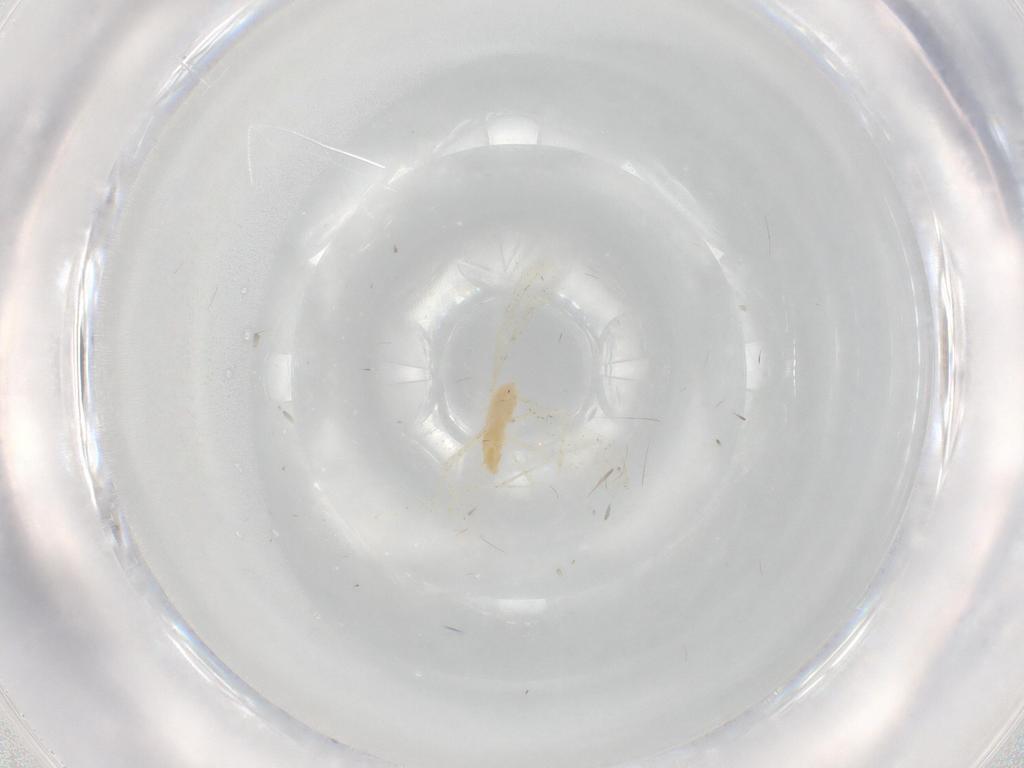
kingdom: Animalia
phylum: Arthropoda
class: Insecta
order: Diptera
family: Cecidomyiidae
